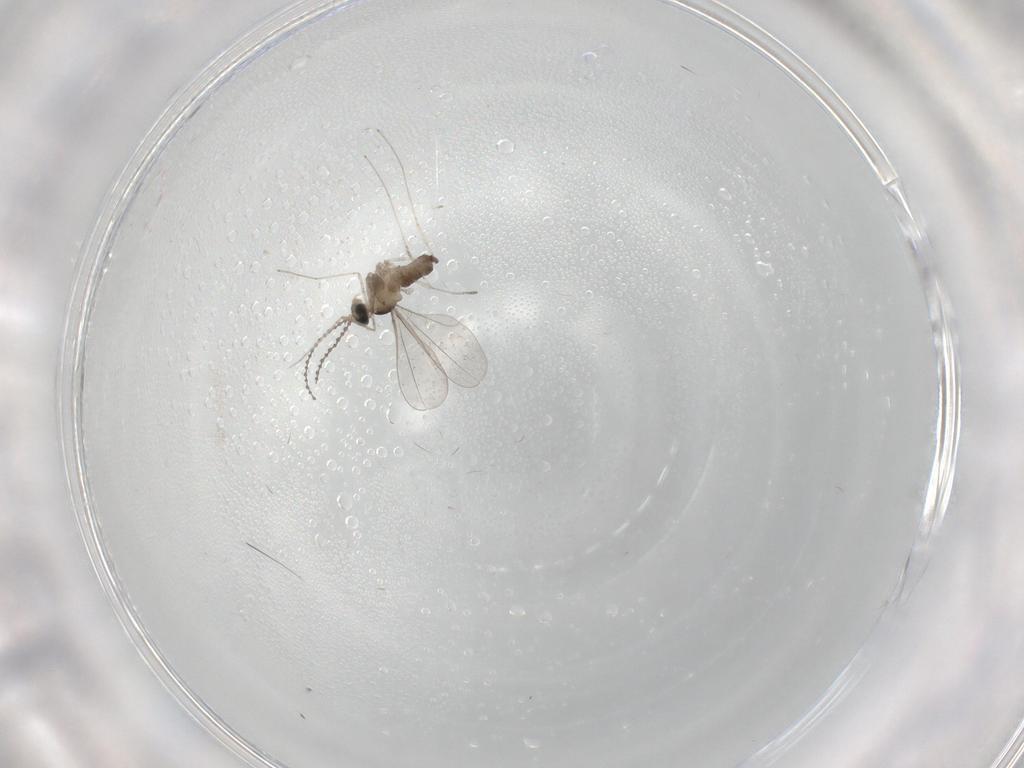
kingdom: Animalia
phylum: Arthropoda
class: Insecta
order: Diptera
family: Cecidomyiidae
